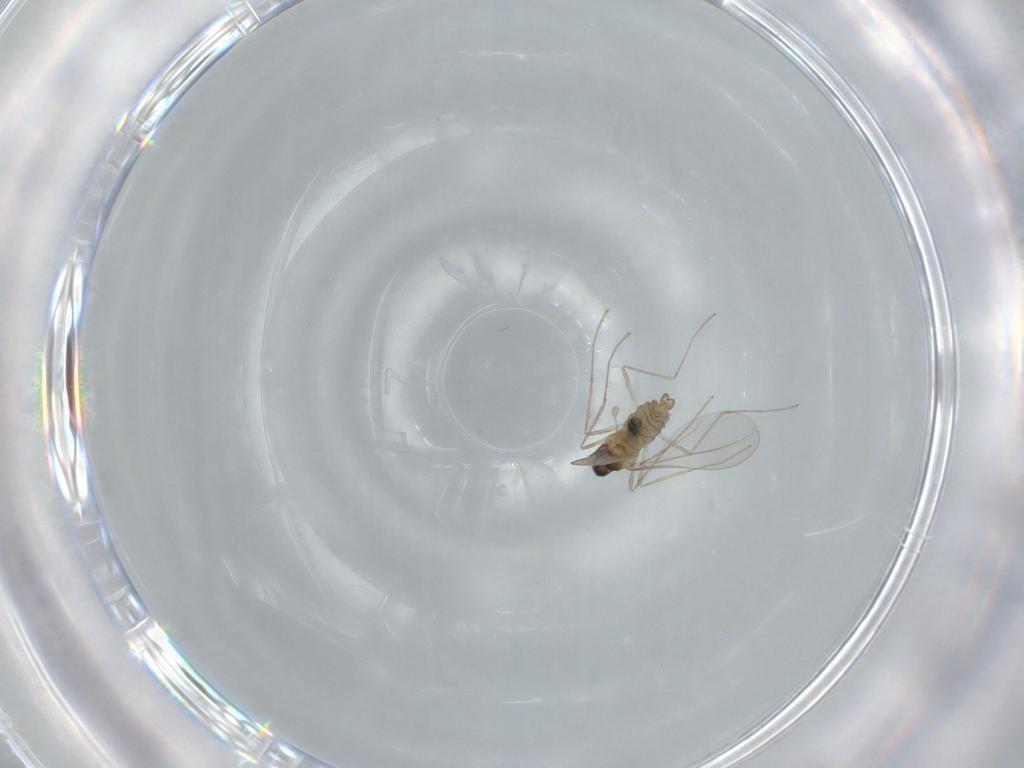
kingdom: Animalia
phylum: Arthropoda
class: Insecta
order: Diptera
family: Cecidomyiidae
